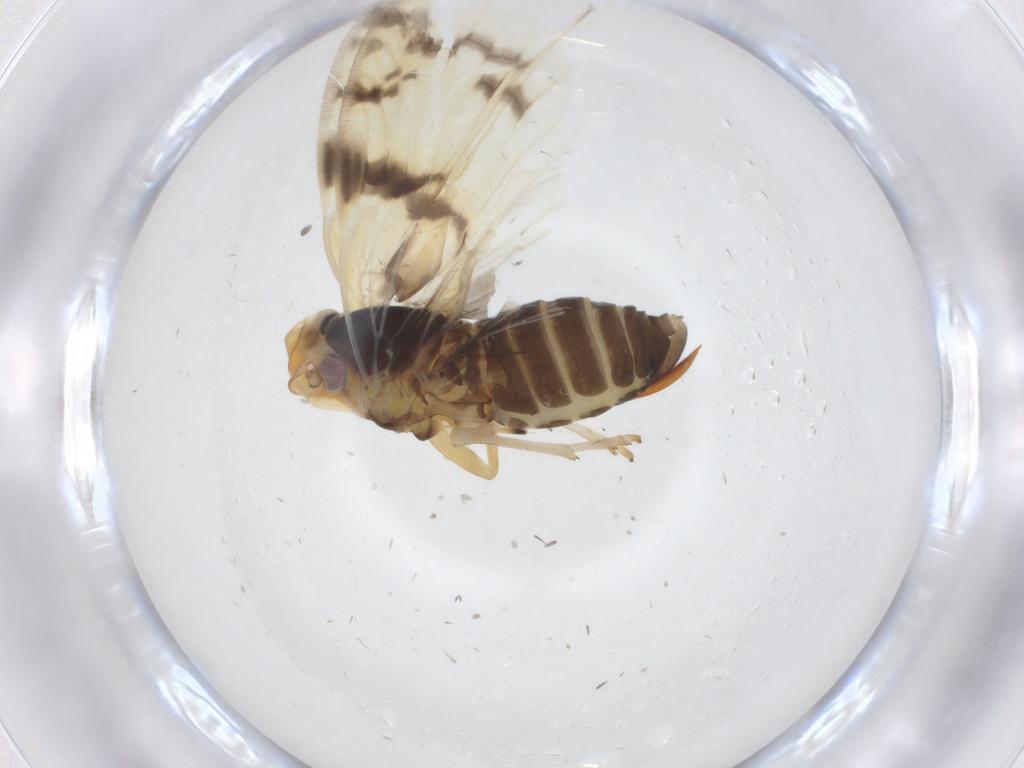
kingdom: Animalia
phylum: Arthropoda
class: Insecta
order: Hemiptera
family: Cixiidae
